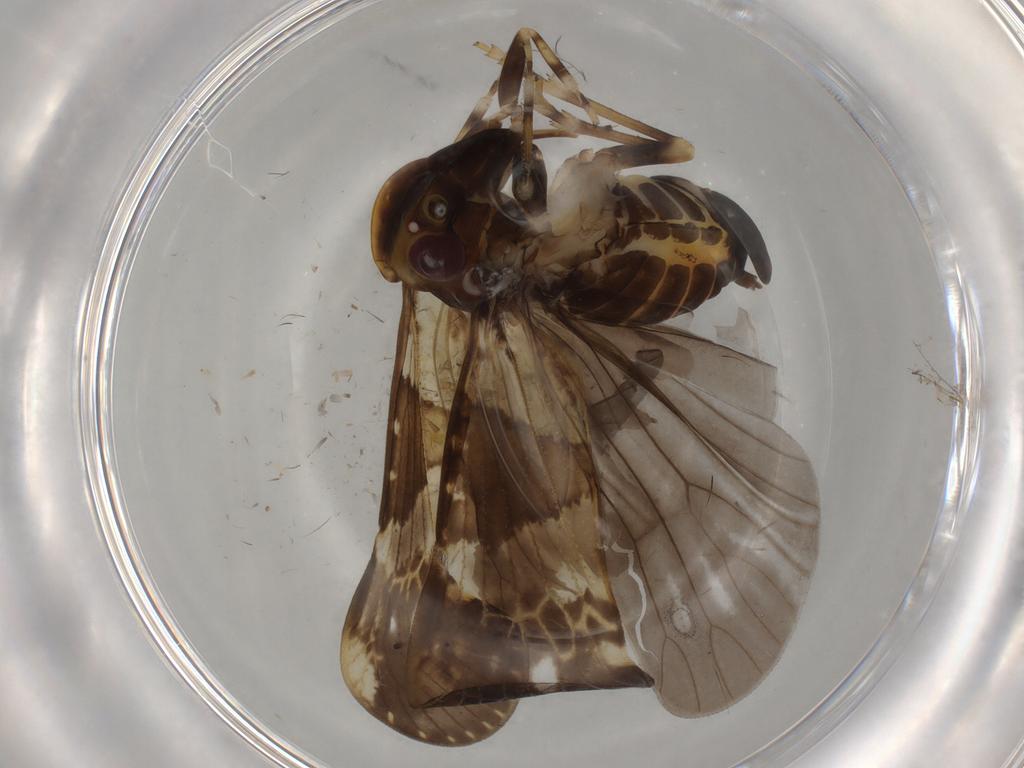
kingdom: Animalia
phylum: Arthropoda
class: Insecta
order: Hemiptera
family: Cixiidae
